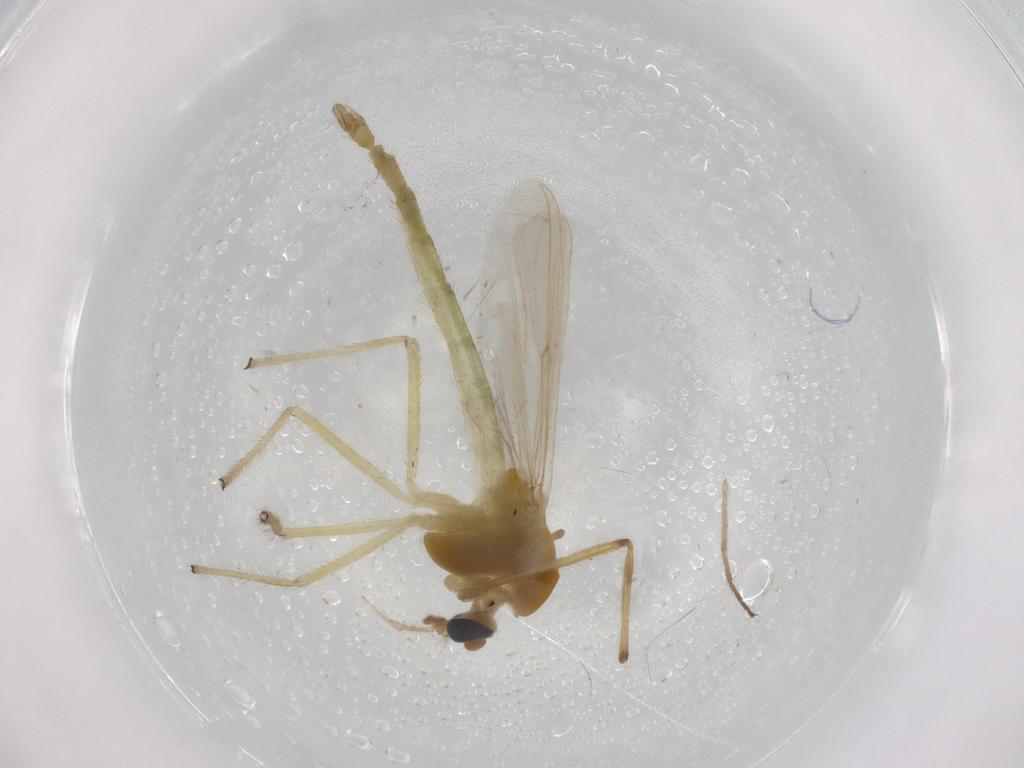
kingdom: Animalia
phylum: Arthropoda
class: Insecta
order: Diptera
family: Chironomidae
